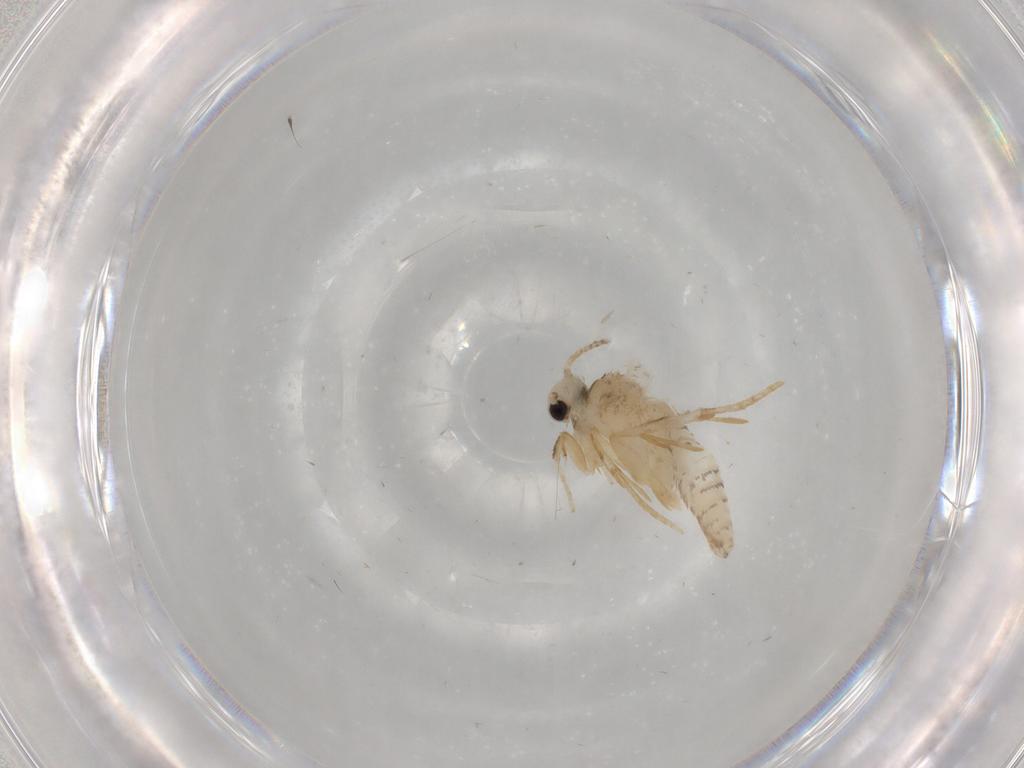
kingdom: Animalia
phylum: Arthropoda
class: Insecta
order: Lepidoptera
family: Psychidae
